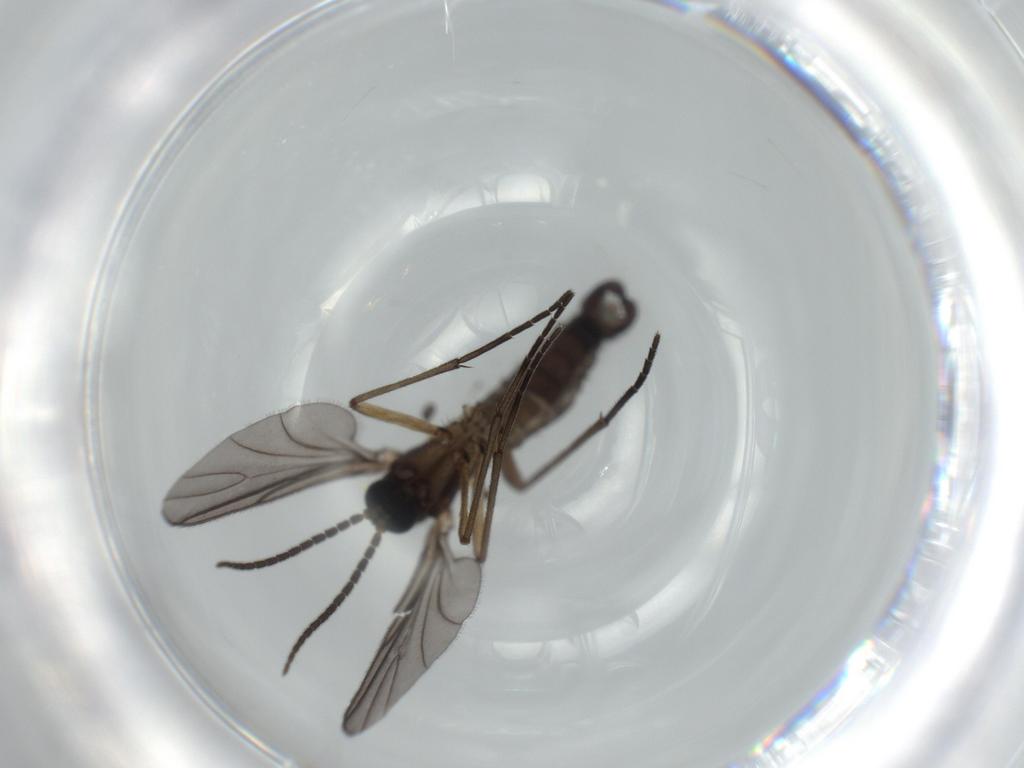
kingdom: Animalia
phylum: Arthropoda
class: Insecta
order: Diptera
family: Sciaridae
